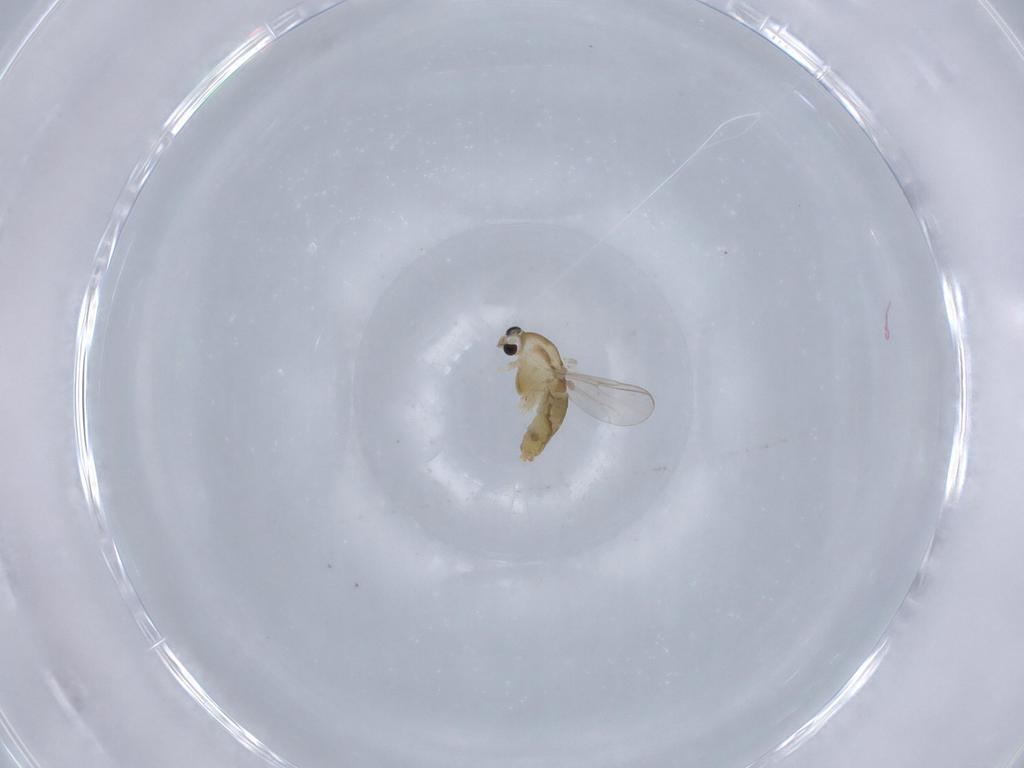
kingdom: Animalia
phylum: Arthropoda
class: Insecta
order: Diptera
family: Chironomidae
